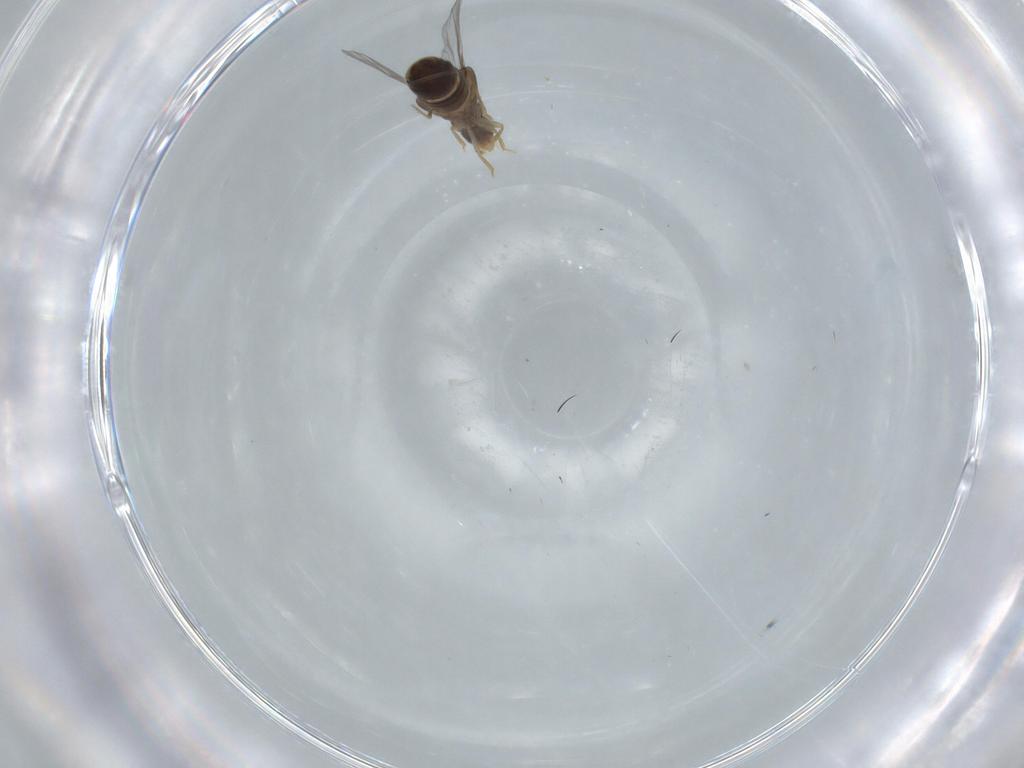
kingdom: Animalia
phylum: Arthropoda
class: Insecta
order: Coleoptera
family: Staphylinidae
